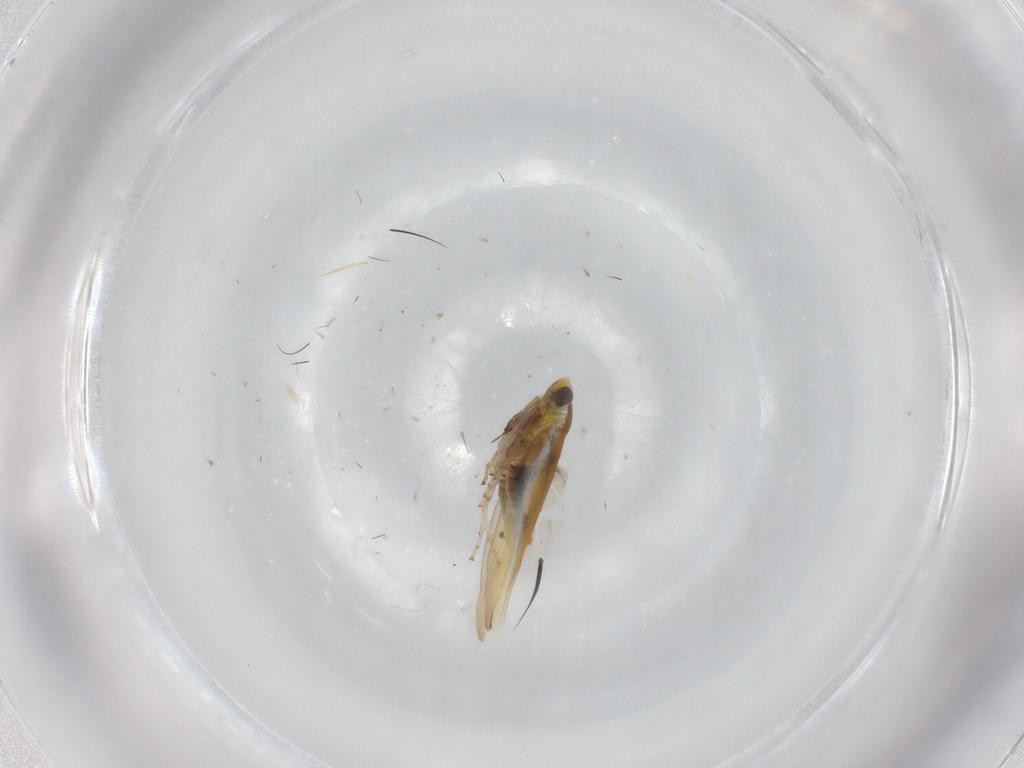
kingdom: Animalia
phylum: Arthropoda
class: Insecta
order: Hemiptera
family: Cicadellidae
